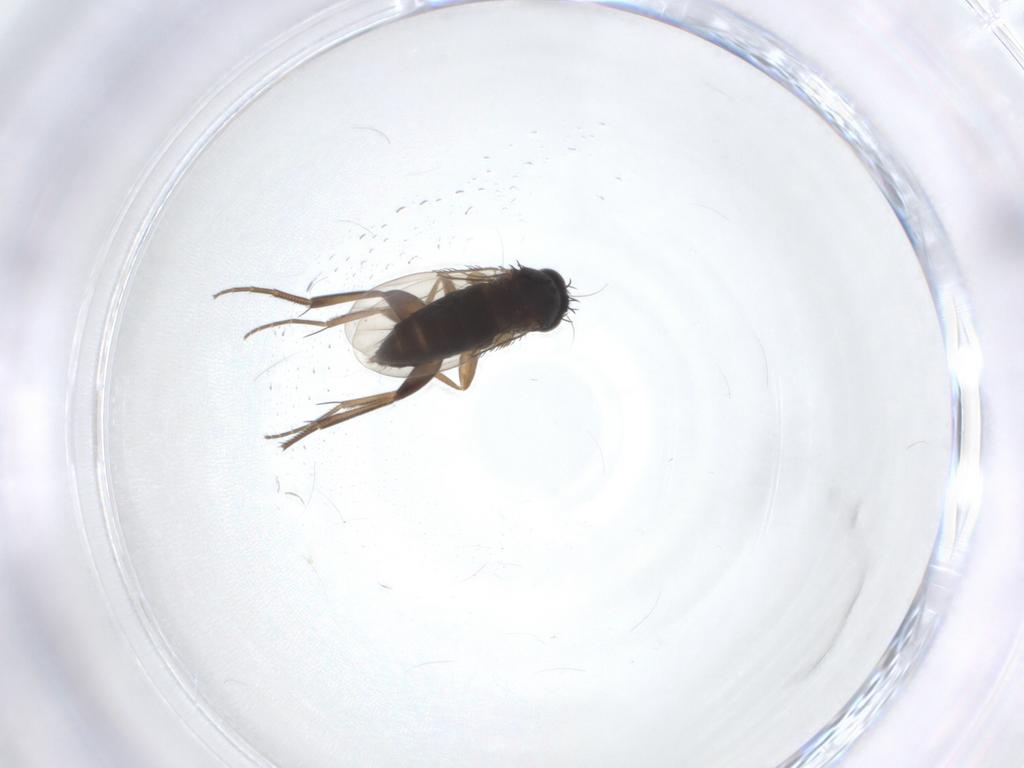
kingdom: Animalia
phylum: Arthropoda
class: Insecta
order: Diptera
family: Phoridae
